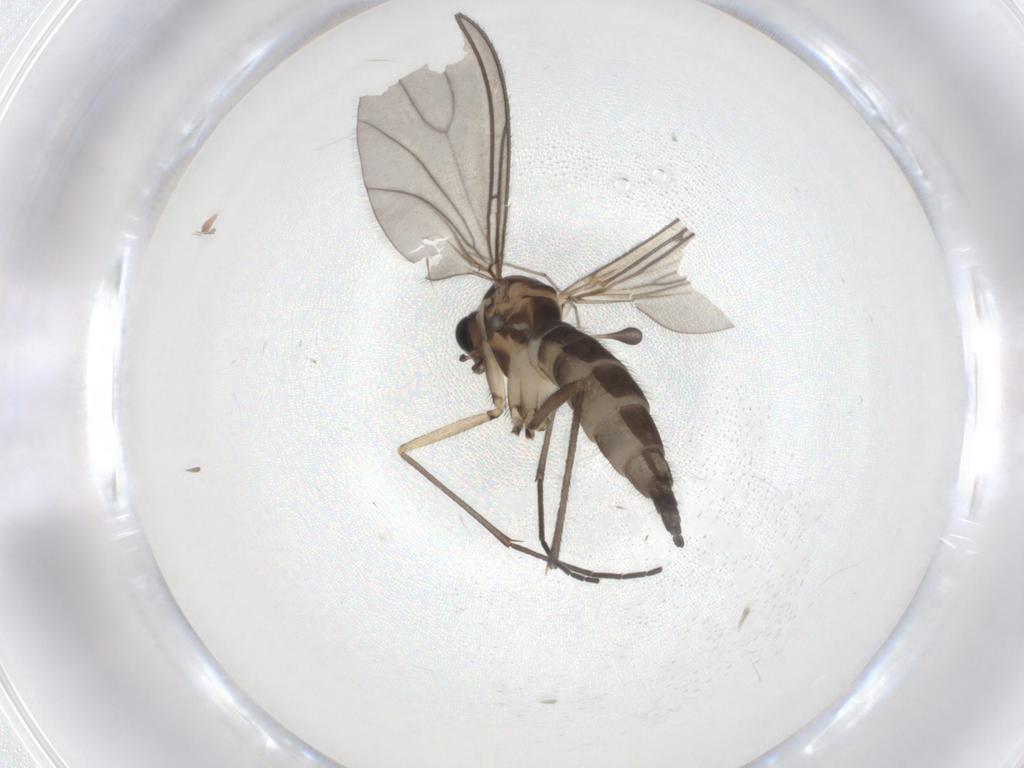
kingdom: Animalia
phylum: Arthropoda
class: Insecta
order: Diptera
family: Sciaridae
